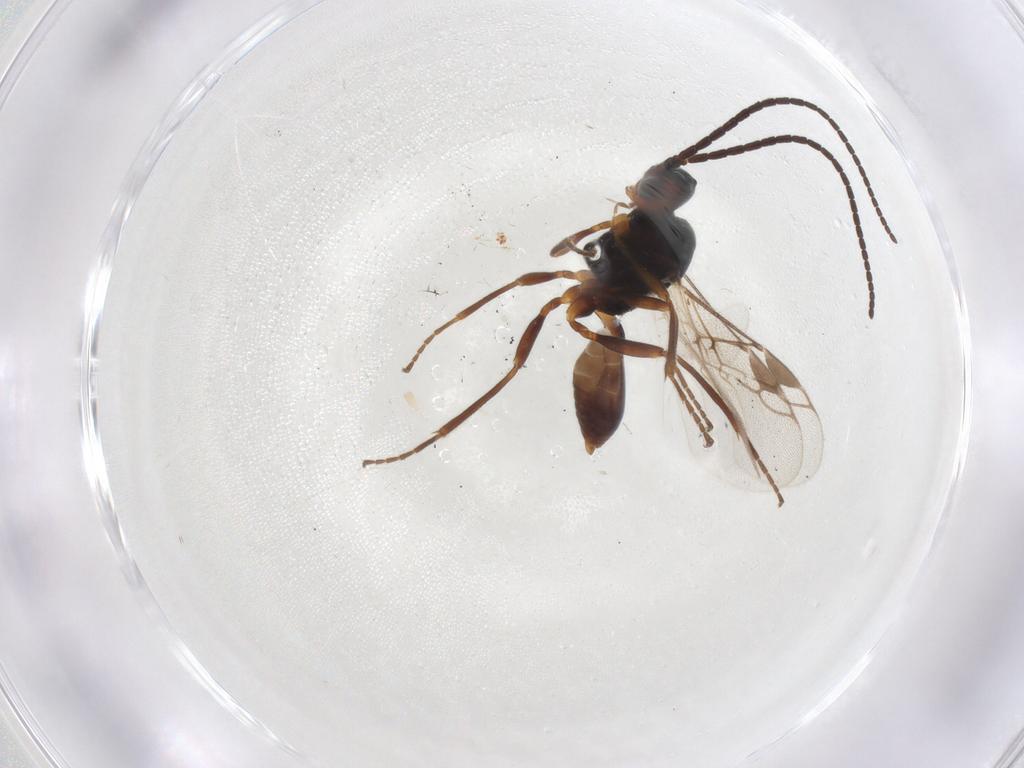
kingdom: Animalia
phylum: Arthropoda
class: Insecta
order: Hymenoptera
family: Braconidae
